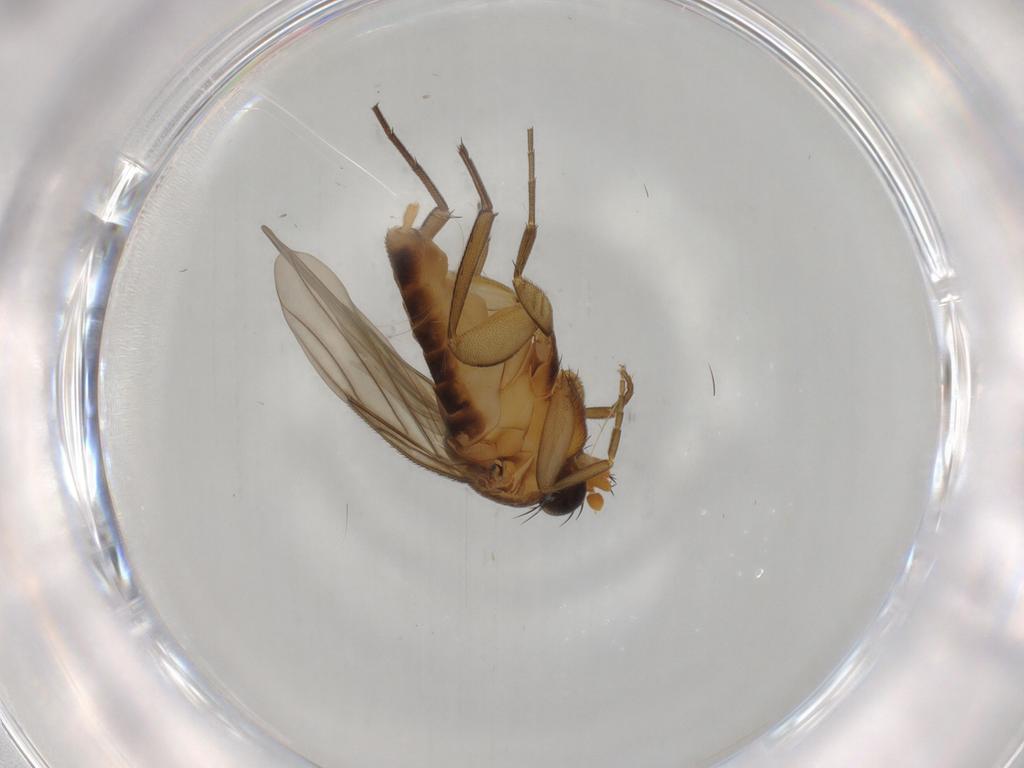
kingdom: Animalia
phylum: Arthropoda
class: Insecta
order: Diptera
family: Phoridae
